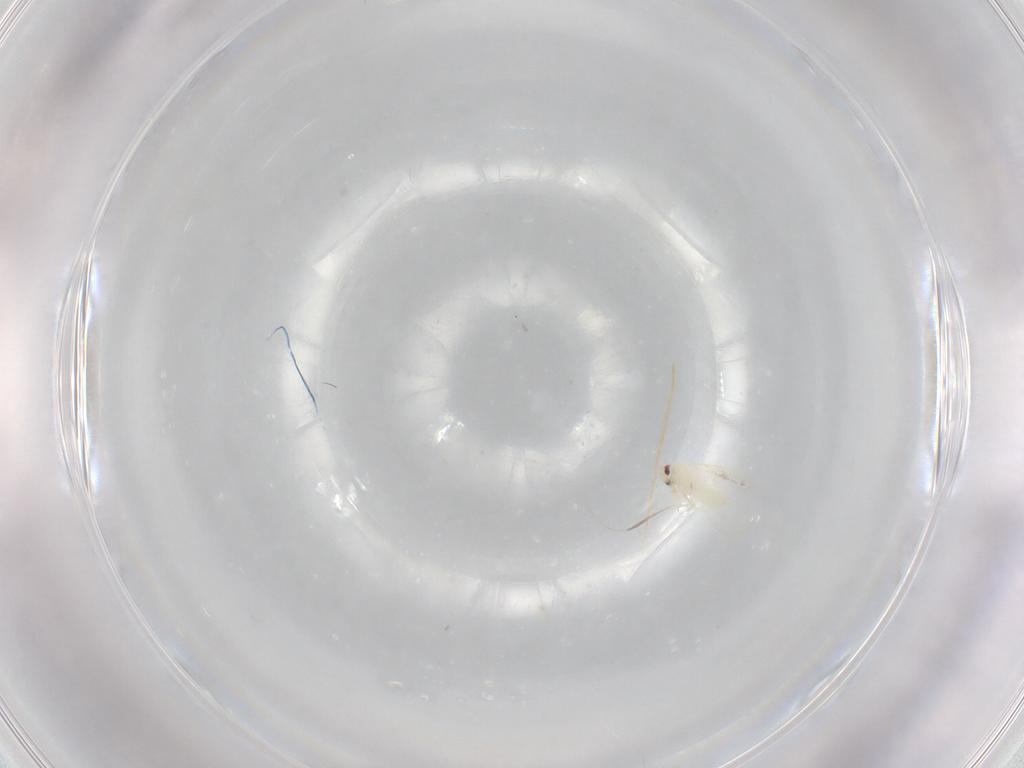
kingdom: Animalia
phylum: Arthropoda
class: Insecta
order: Hemiptera
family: Aleyrodidae
